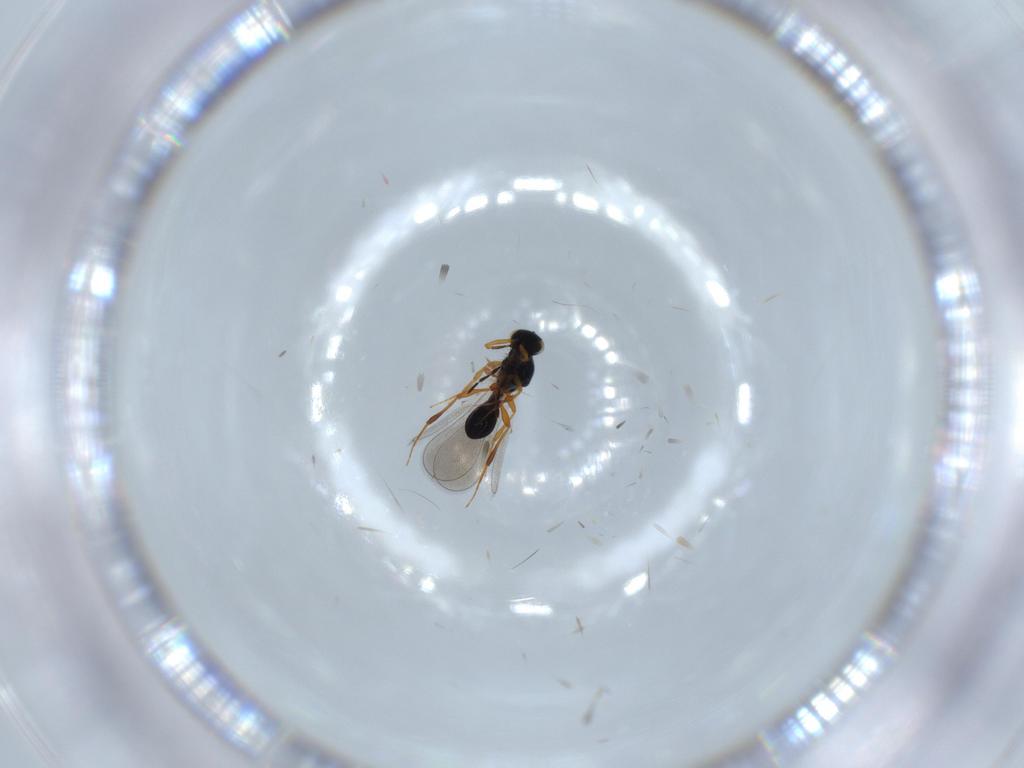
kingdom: Animalia
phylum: Arthropoda
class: Insecta
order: Hymenoptera
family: Platygastridae
